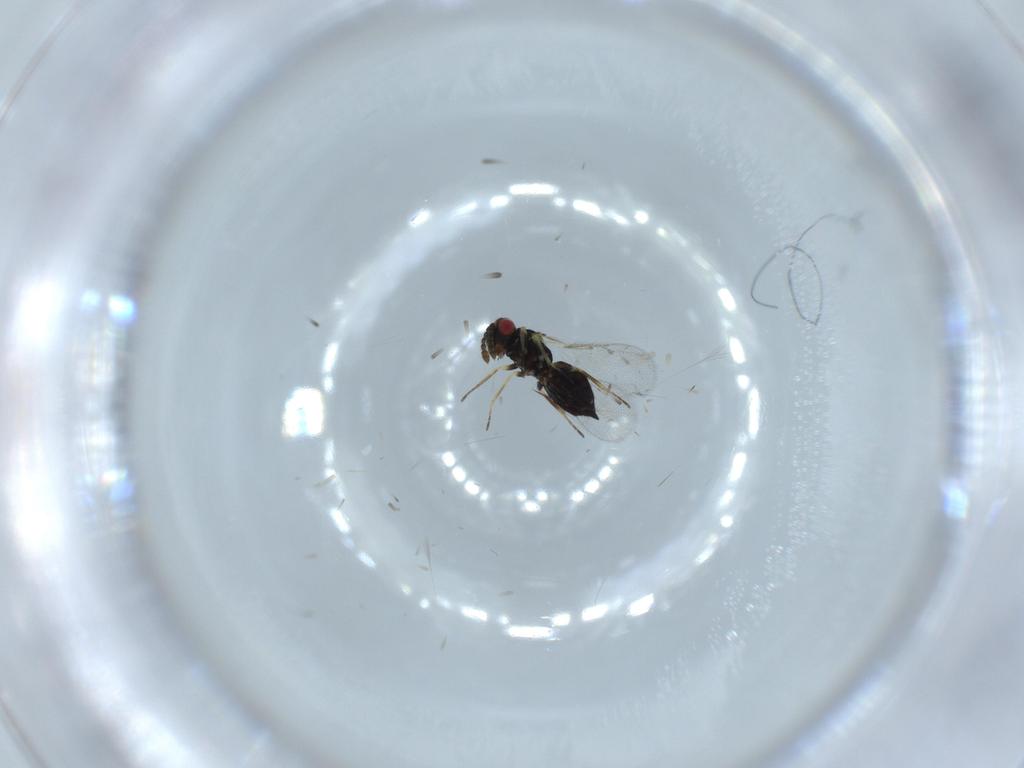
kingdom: Animalia
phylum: Arthropoda
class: Insecta
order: Hymenoptera
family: Eulophidae
